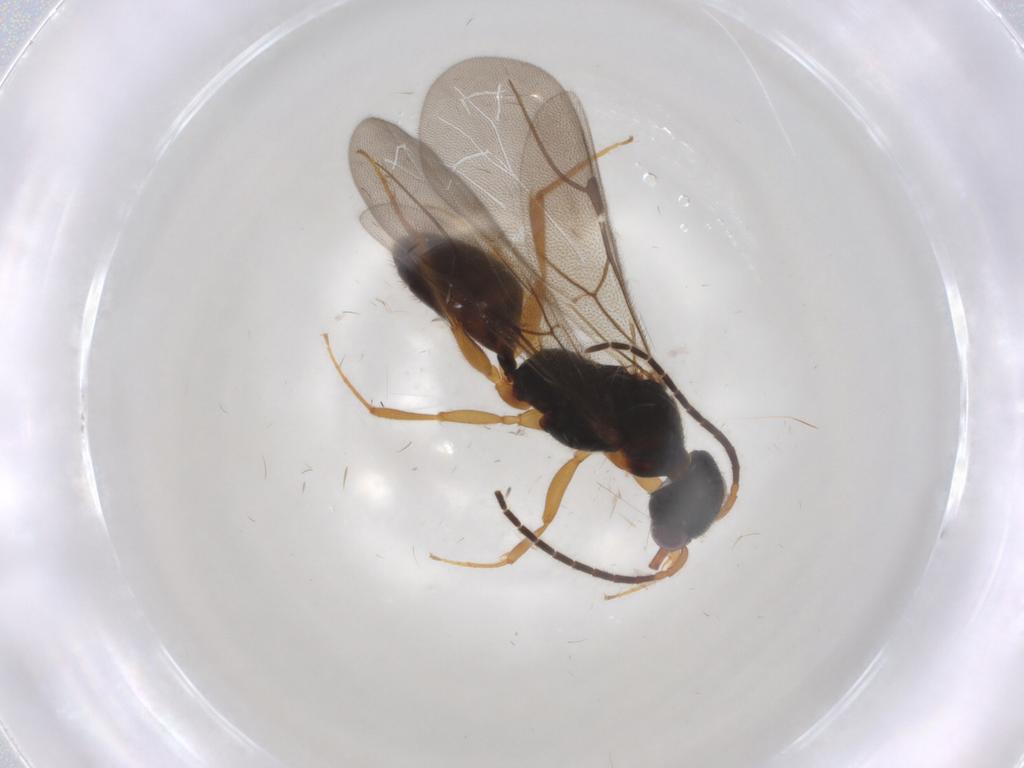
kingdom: Animalia
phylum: Arthropoda
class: Insecta
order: Hymenoptera
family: Bethylidae
